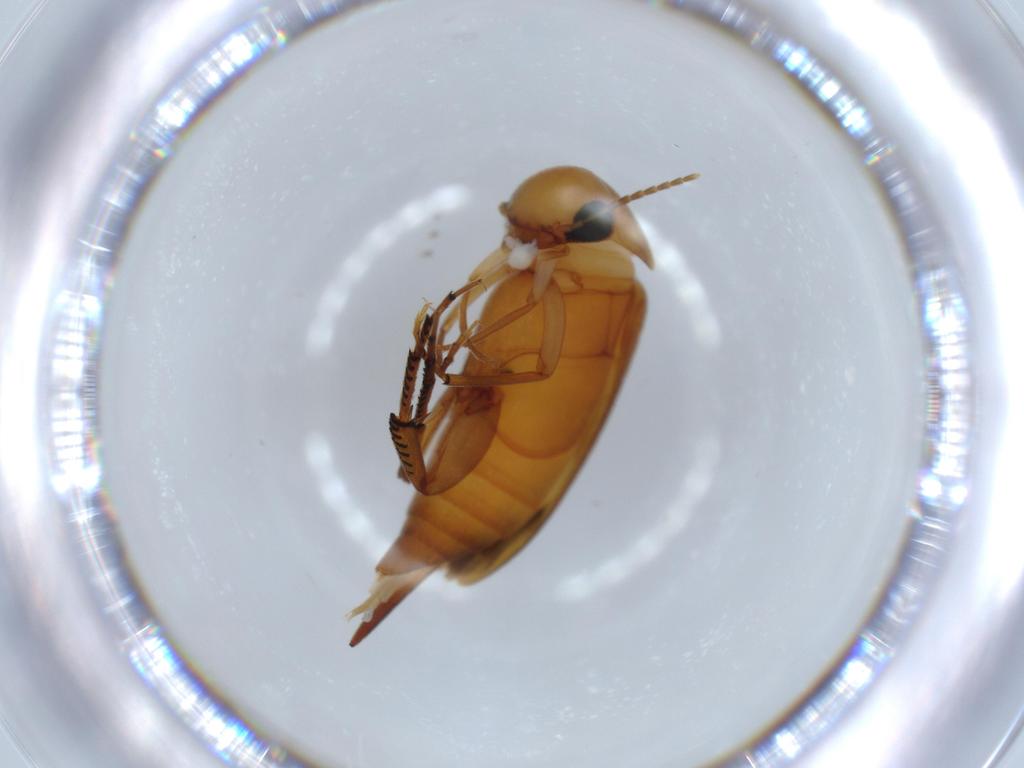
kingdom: Animalia
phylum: Arthropoda
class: Insecta
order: Coleoptera
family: Mordellidae
